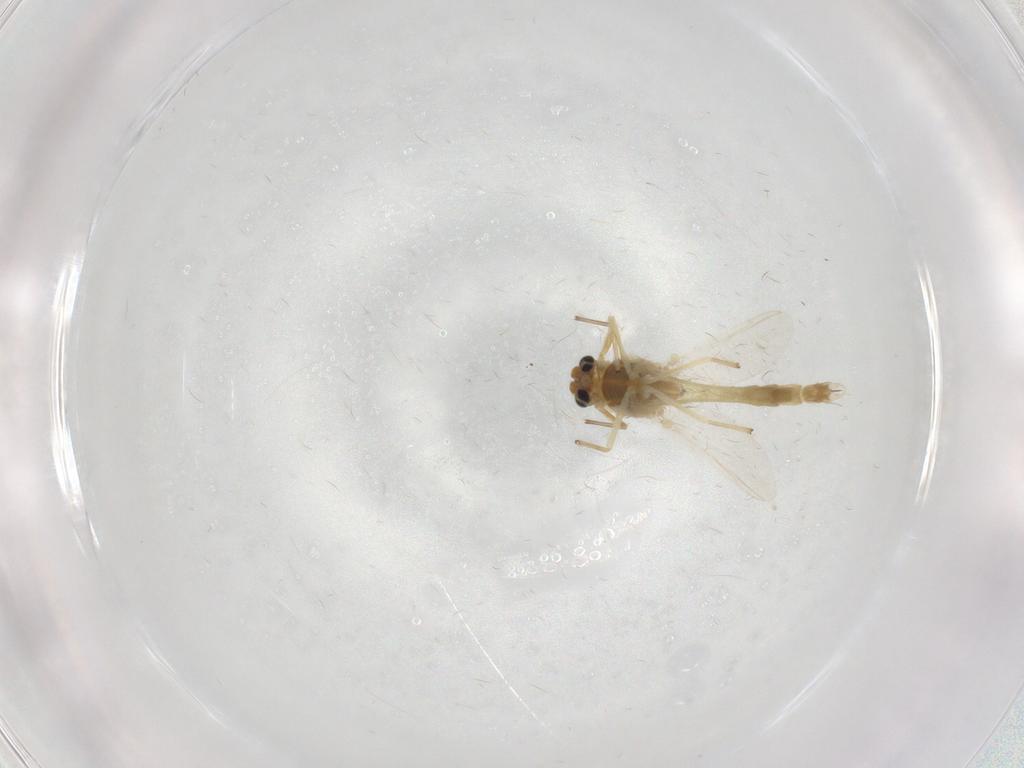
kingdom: Animalia
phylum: Arthropoda
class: Insecta
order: Diptera
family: Chironomidae
